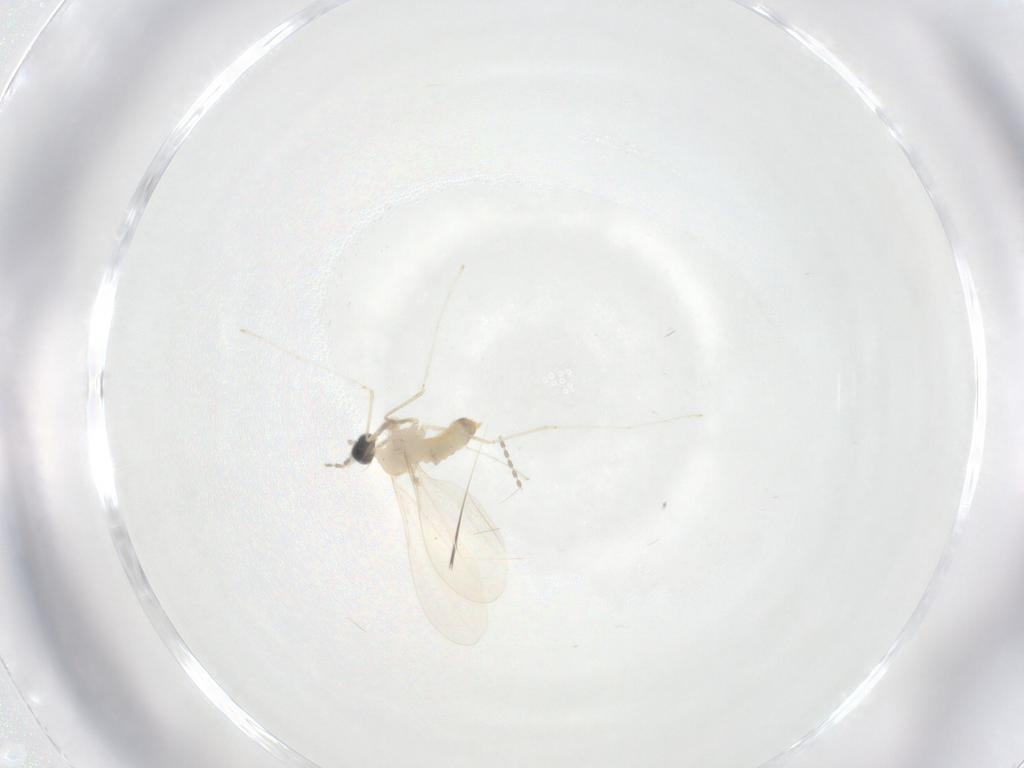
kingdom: Animalia
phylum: Arthropoda
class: Insecta
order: Diptera
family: Cecidomyiidae
